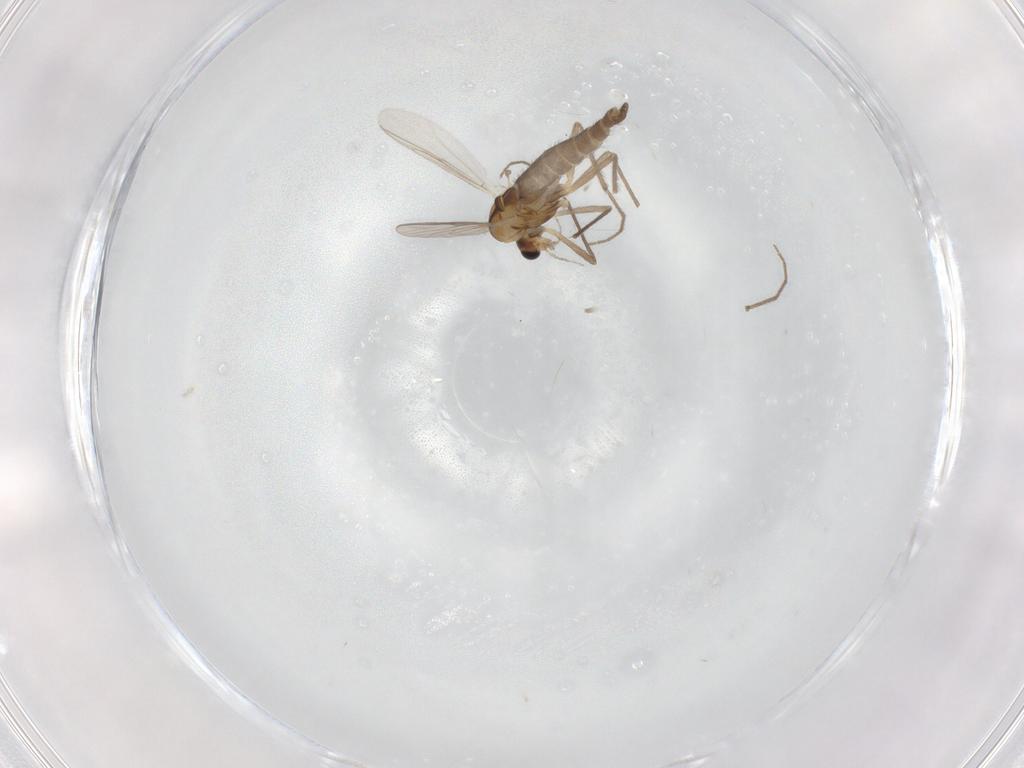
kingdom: Animalia
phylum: Arthropoda
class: Insecta
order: Diptera
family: Chironomidae
